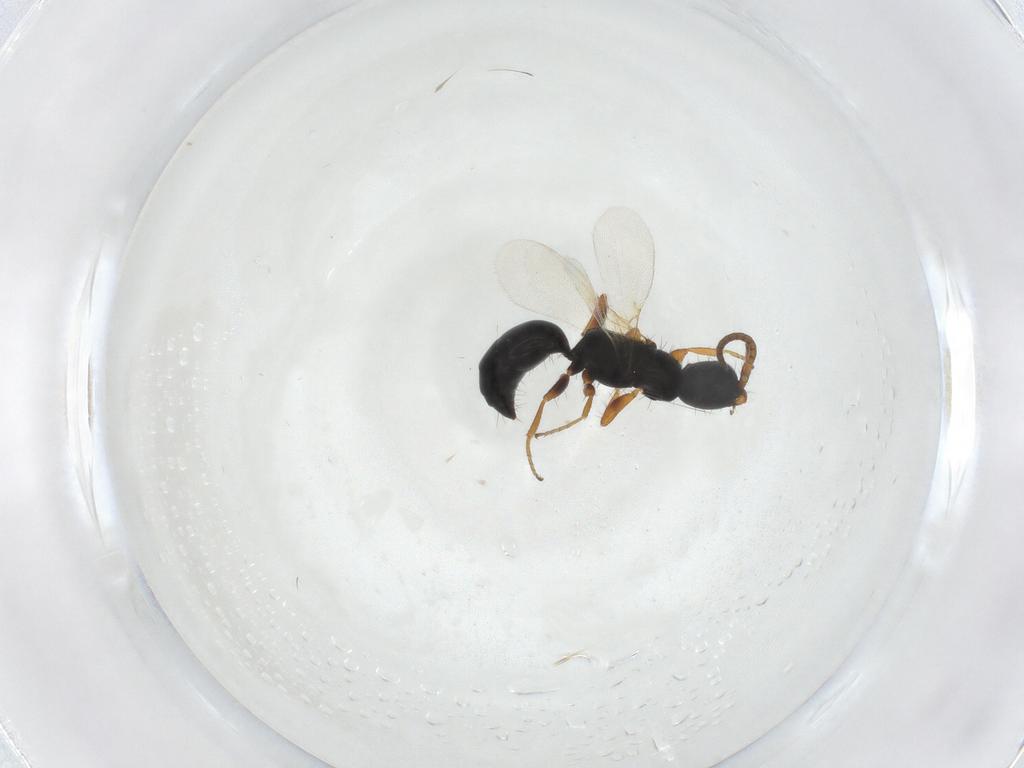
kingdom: Animalia
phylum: Arthropoda
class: Insecta
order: Hymenoptera
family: Bethylidae
